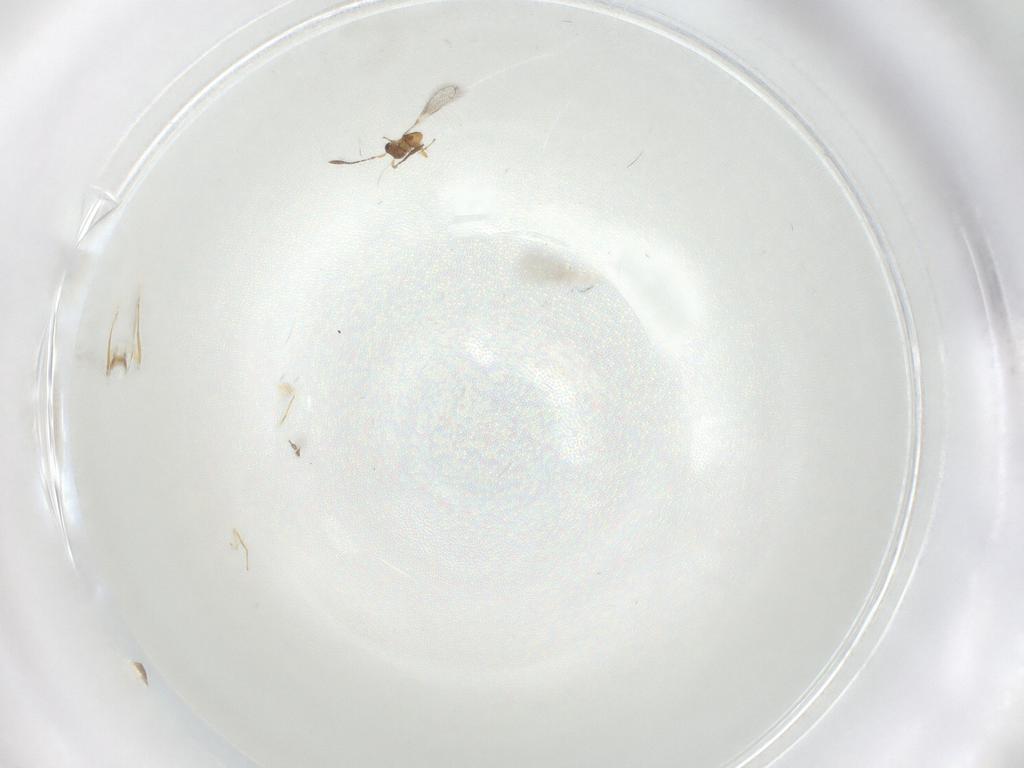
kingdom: Animalia
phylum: Arthropoda
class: Insecta
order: Hymenoptera
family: Mymaridae
